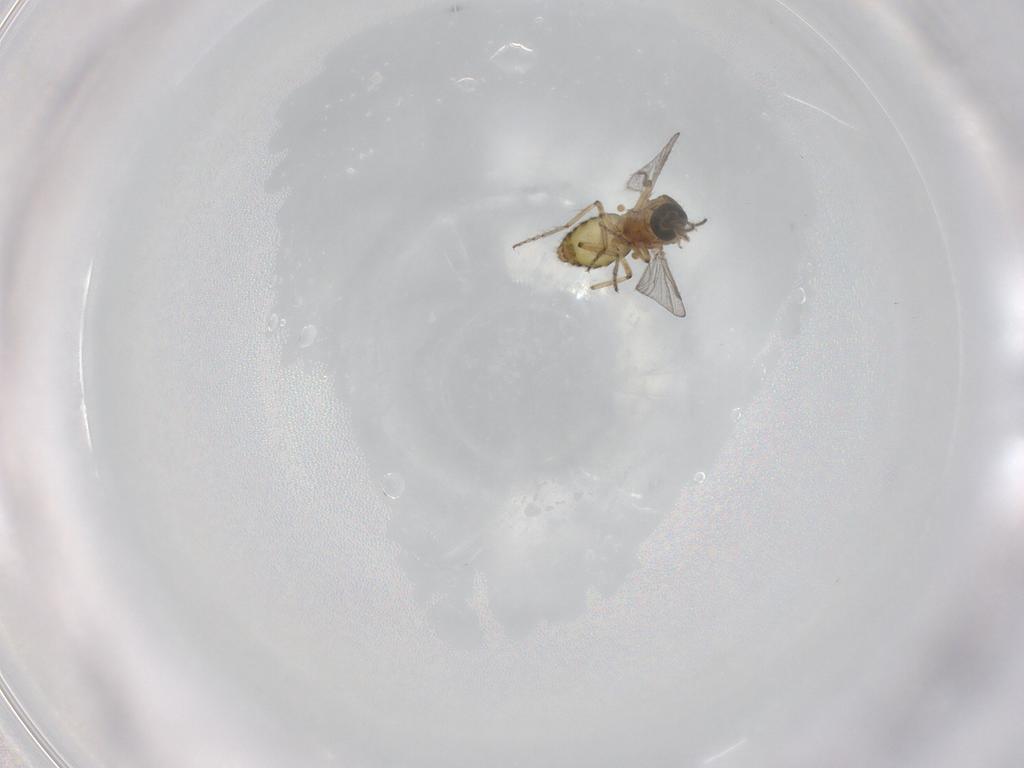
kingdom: Animalia
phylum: Arthropoda
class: Insecta
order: Diptera
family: Ceratopogonidae
